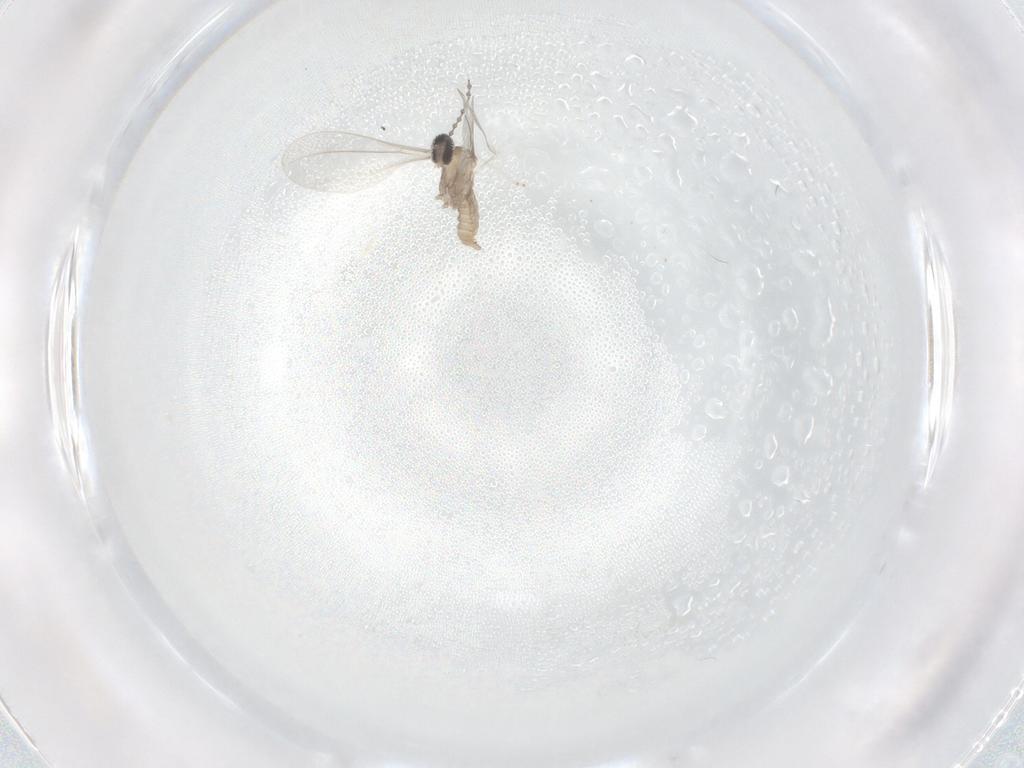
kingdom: Animalia
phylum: Arthropoda
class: Insecta
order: Diptera
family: Cecidomyiidae
